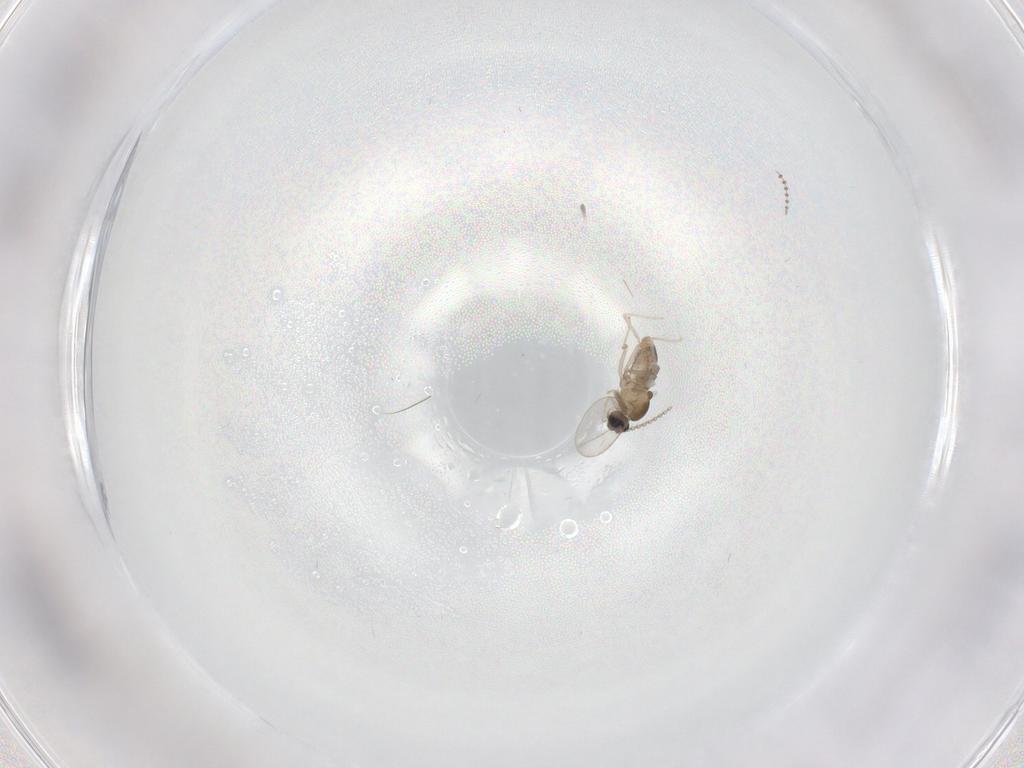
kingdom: Animalia
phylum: Arthropoda
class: Insecta
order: Diptera
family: Cecidomyiidae
